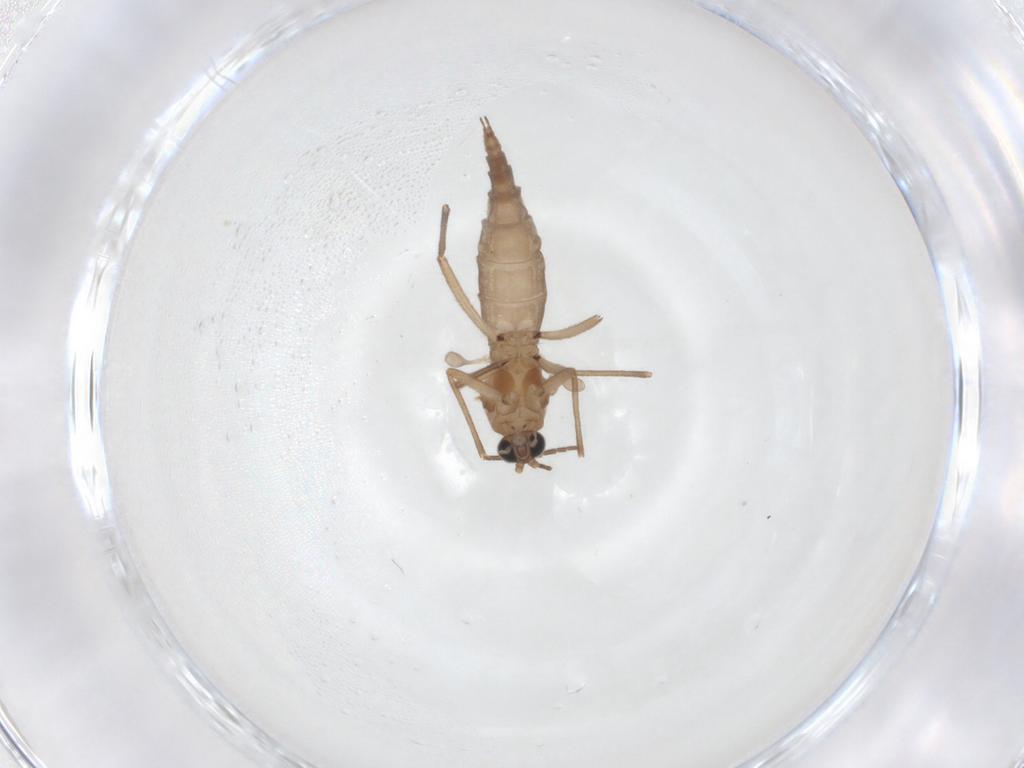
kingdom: Animalia
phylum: Arthropoda
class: Insecta
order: Diptera
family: Sciaridae
